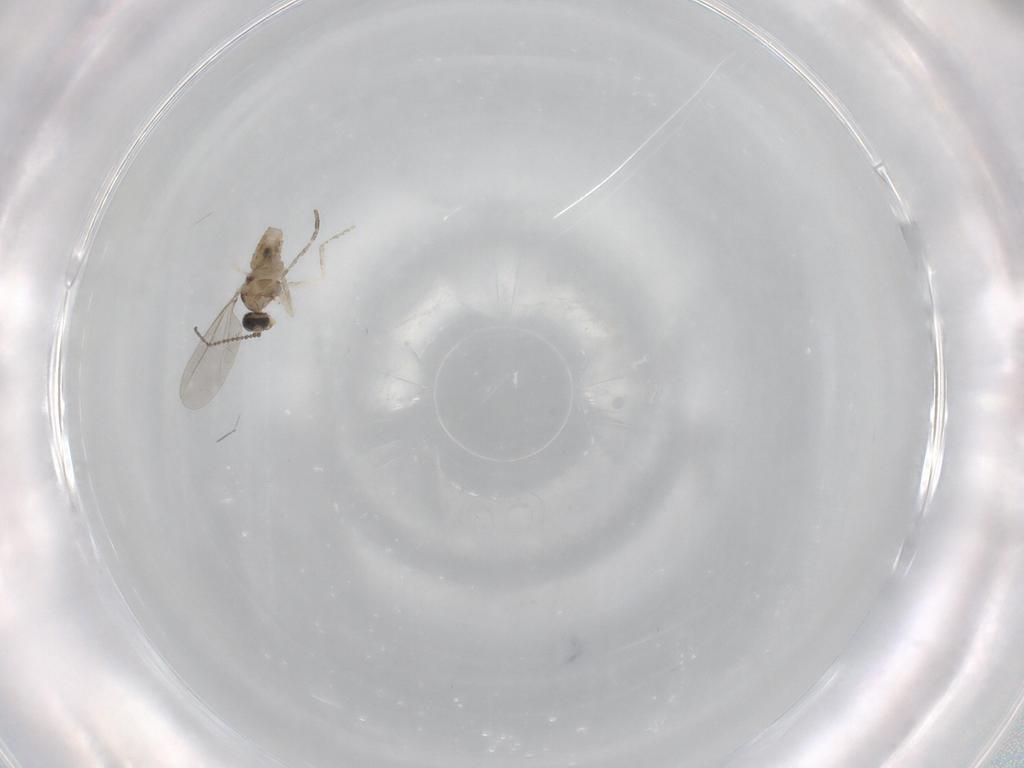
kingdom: Animalia
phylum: Arthropoda
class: Insecta
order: Diptera
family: Cecidomyiidae
